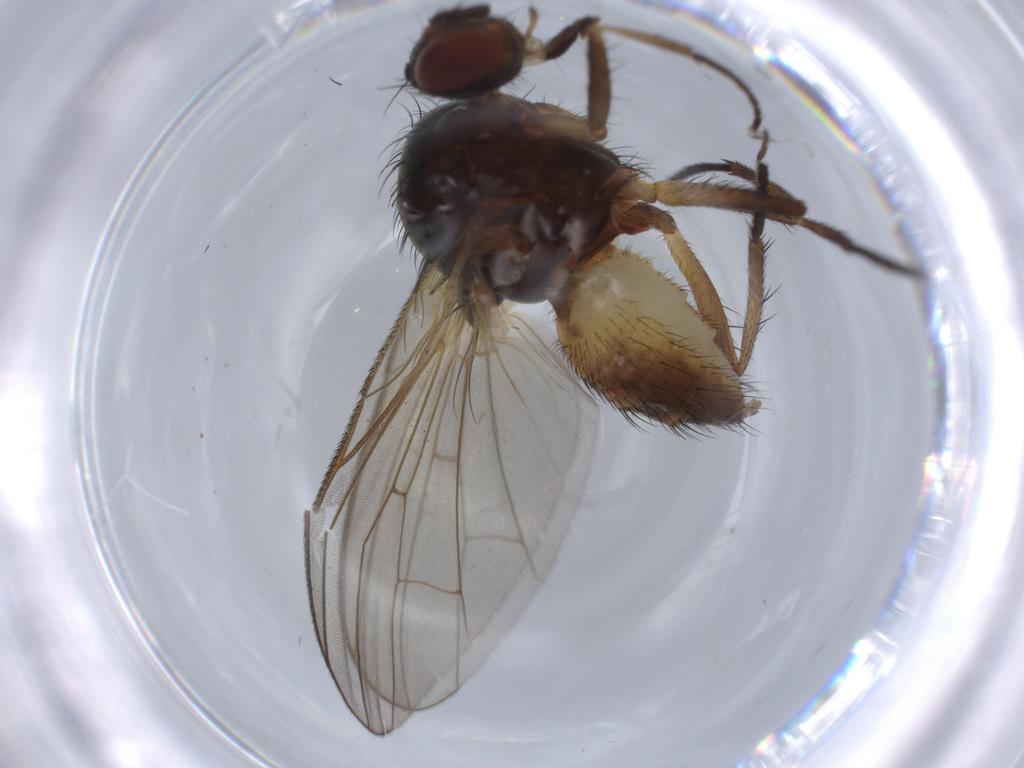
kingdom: Animalia
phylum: Arthropoda
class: Insecta
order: Diptera
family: Anthomyiidae
